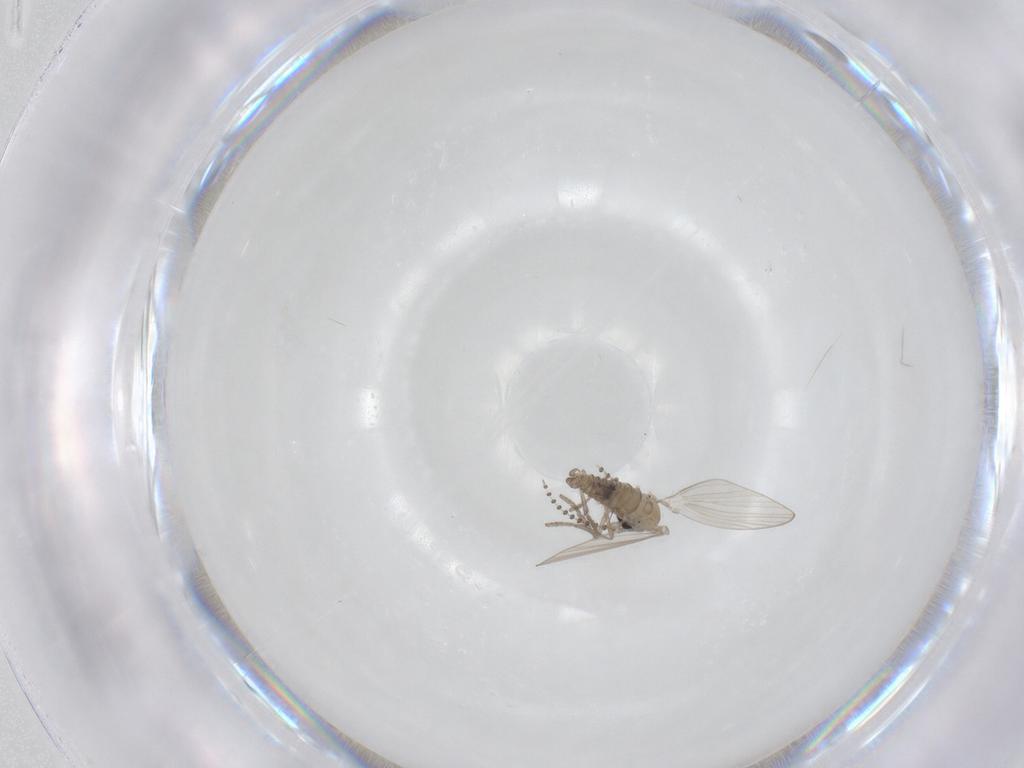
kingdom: Animalia
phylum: Arthropoda
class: Insecta
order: Diptera
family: Psychodidae
